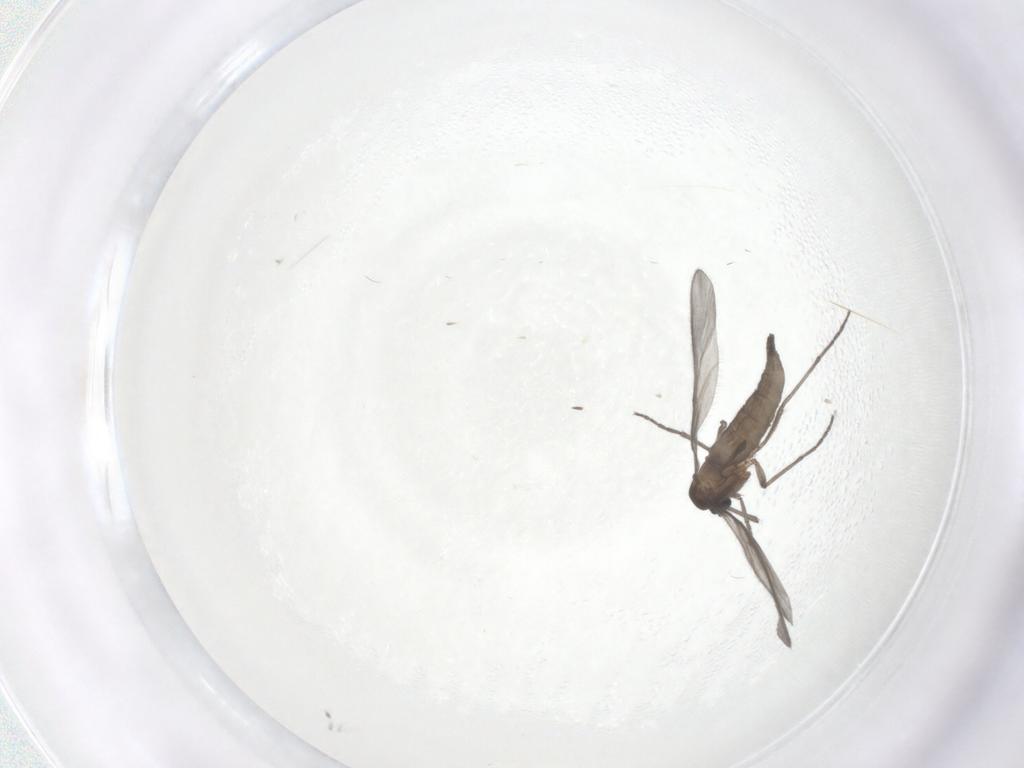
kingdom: Animalia
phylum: Arthropoda
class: Insecta
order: Diptera
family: Sciaridae
